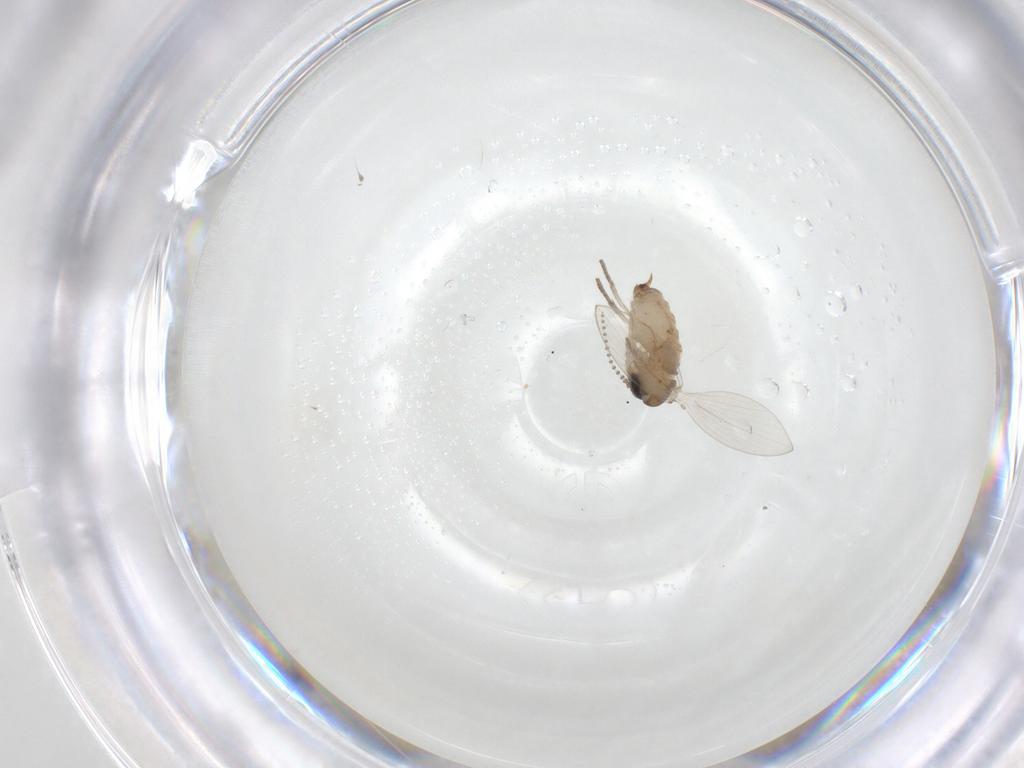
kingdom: Animalia
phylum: Arthropoda
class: Insecta
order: Diptera
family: Psychodidae
